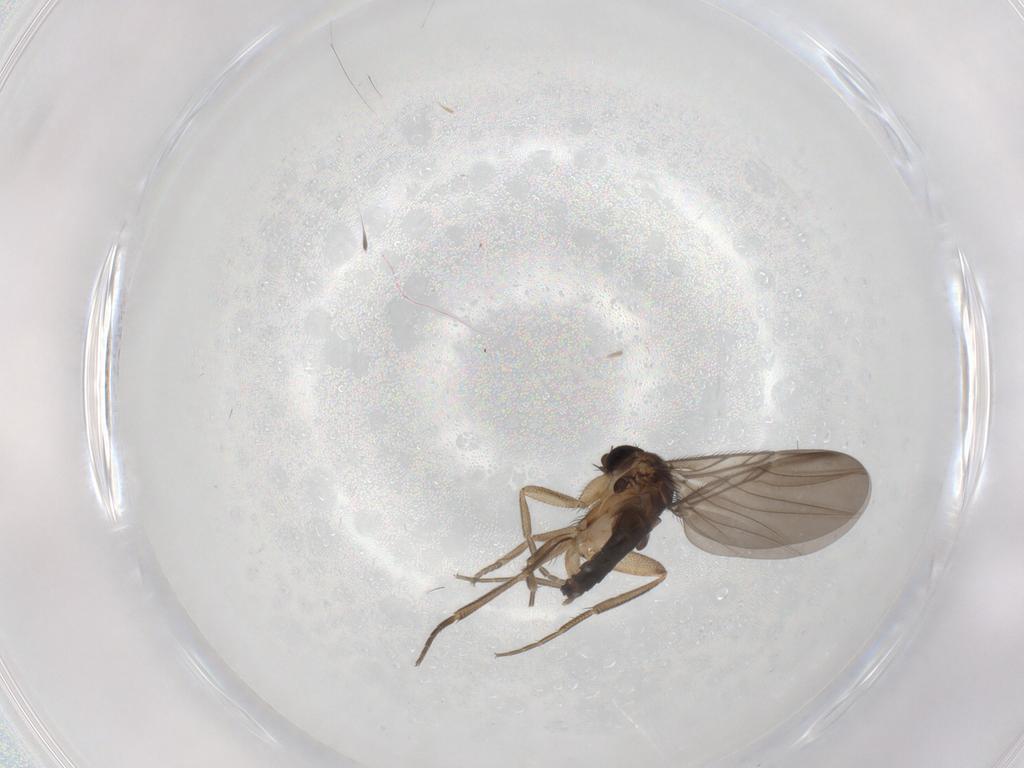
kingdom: Animalia
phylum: Arthropoda
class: Insecta
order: Diptera
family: Phoridae
